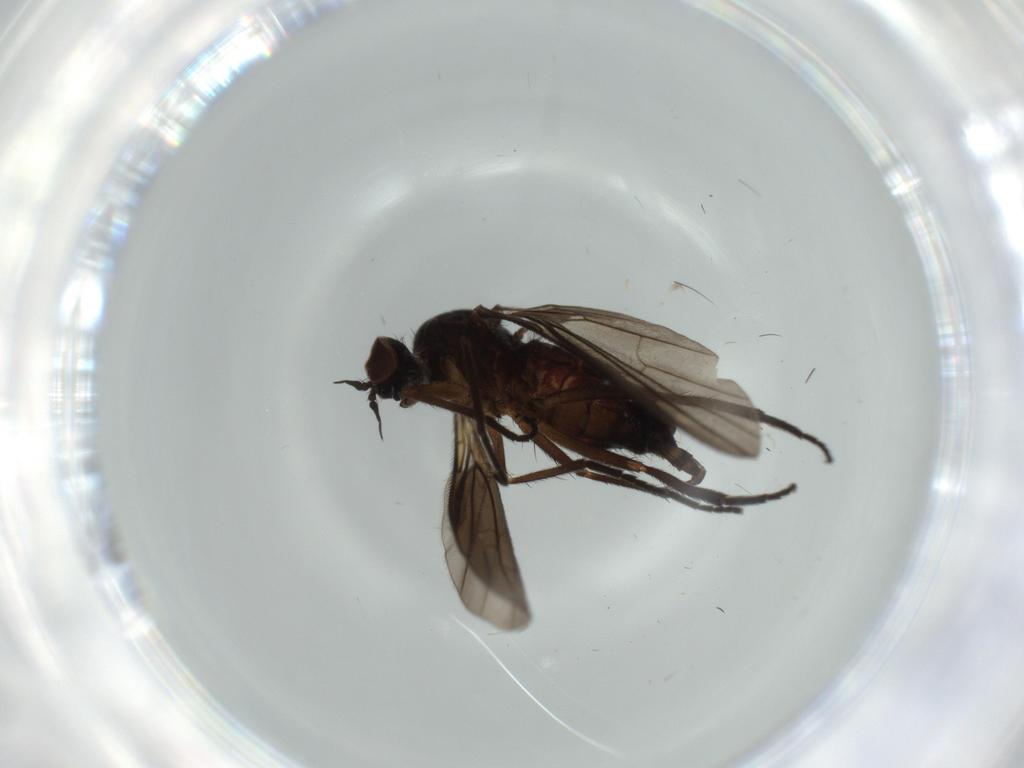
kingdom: Animalia
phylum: Arthropoda
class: Insecta
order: Diptera
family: Empididae
